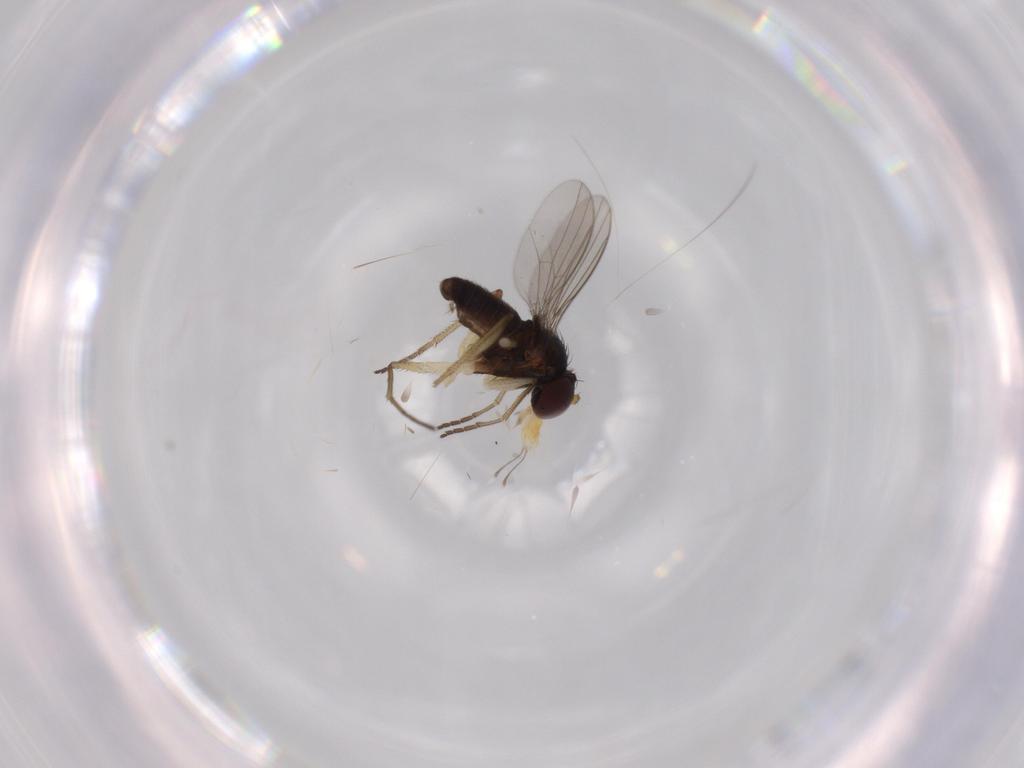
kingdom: Animalia
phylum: Arthropoda
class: Insecta
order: Diptera
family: Dolichopodidae
